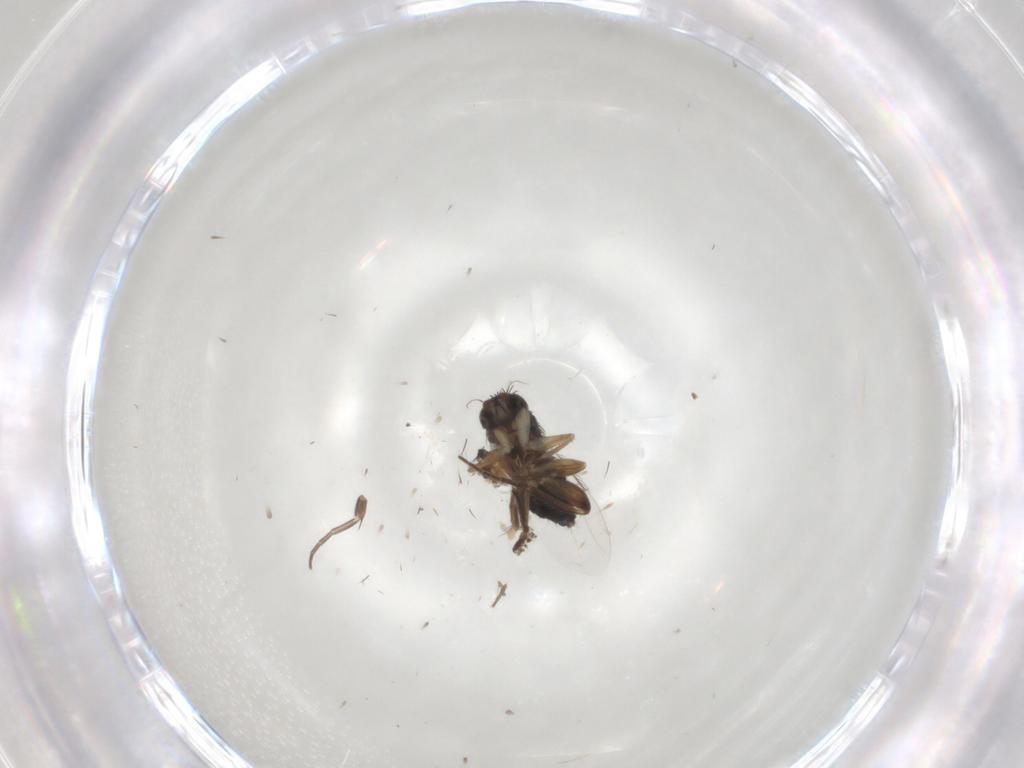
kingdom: Animalia
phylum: Arthropoda
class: Insecta
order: Diptera
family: Phoridae
